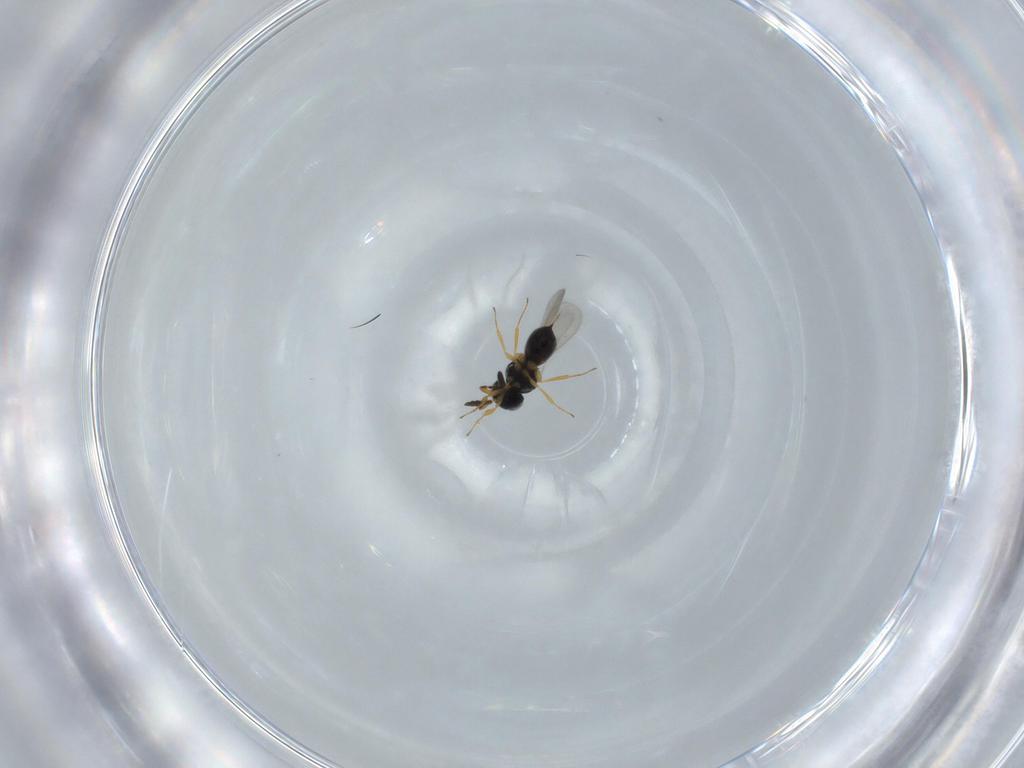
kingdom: Animalia
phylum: Arthropoda
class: Insecta
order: Hymenoptera
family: Scelionidae
